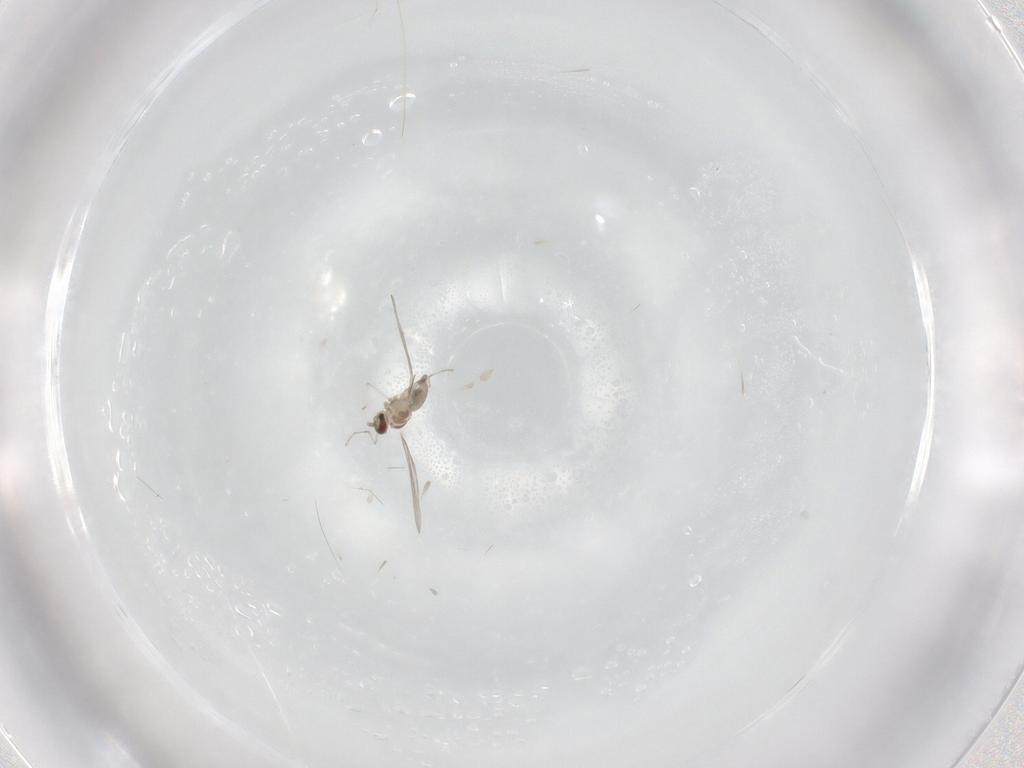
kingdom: Animalia
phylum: Arthropoda
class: Insecta
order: Diptera
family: Cecidomyiidae
